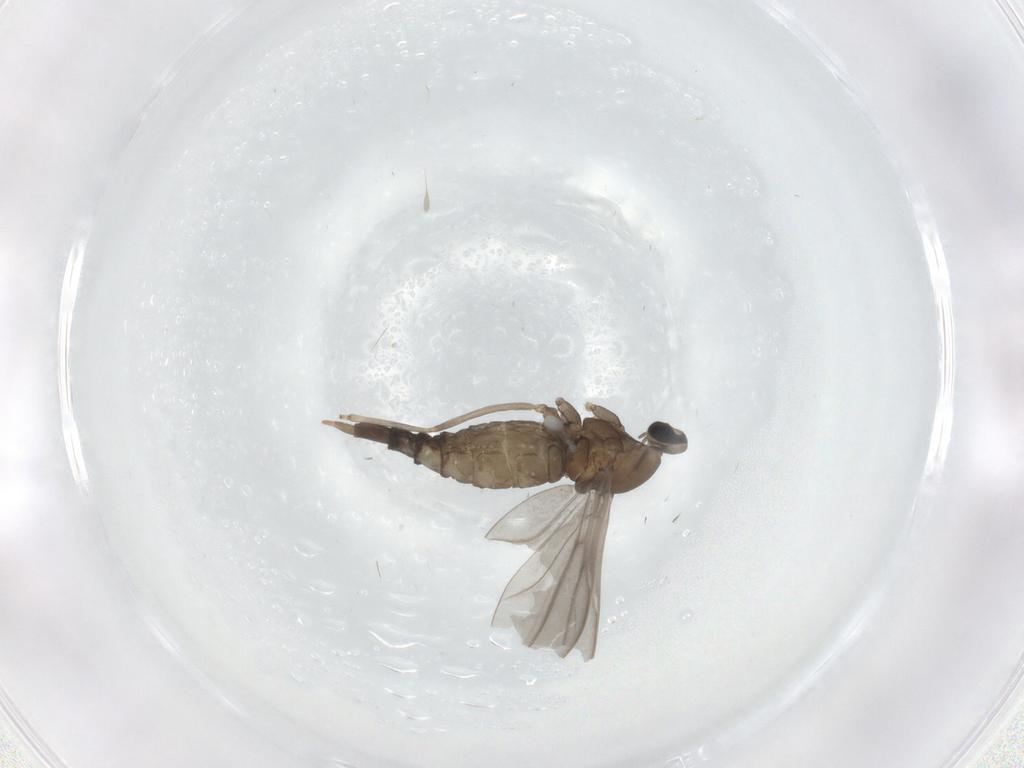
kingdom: Animalia
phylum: Arthropoda
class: Insecta
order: Diptera
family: Cecidomyiidae
